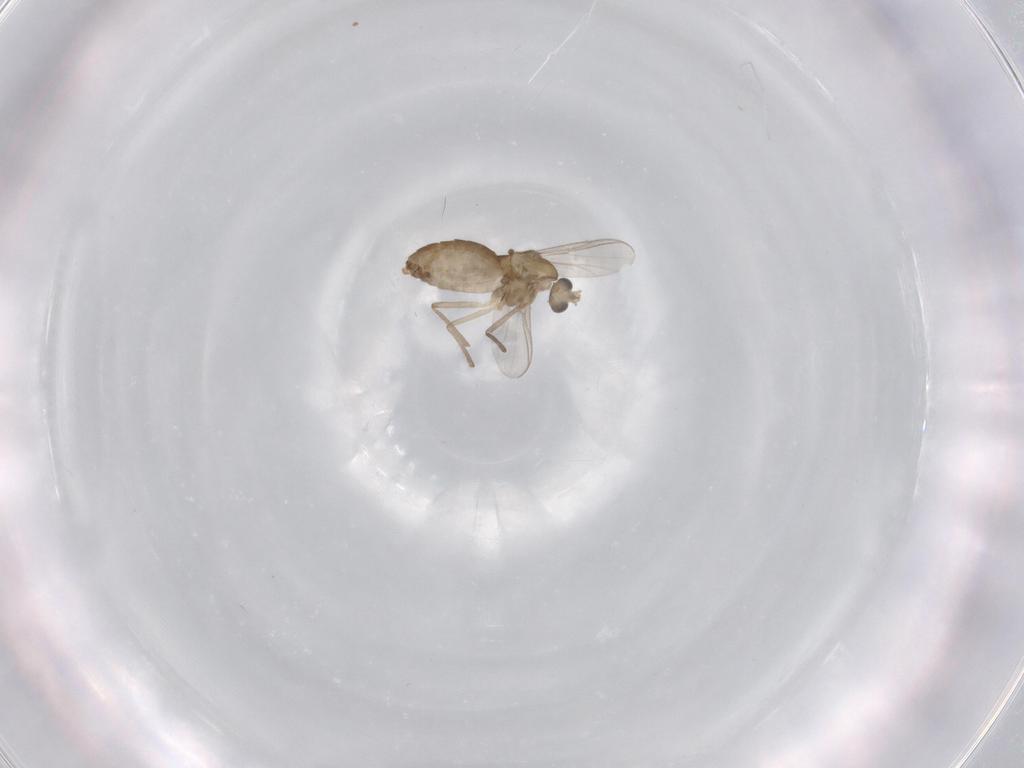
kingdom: Animalia
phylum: Arthropoda
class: Insecta
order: Diptera
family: Chironomidae
